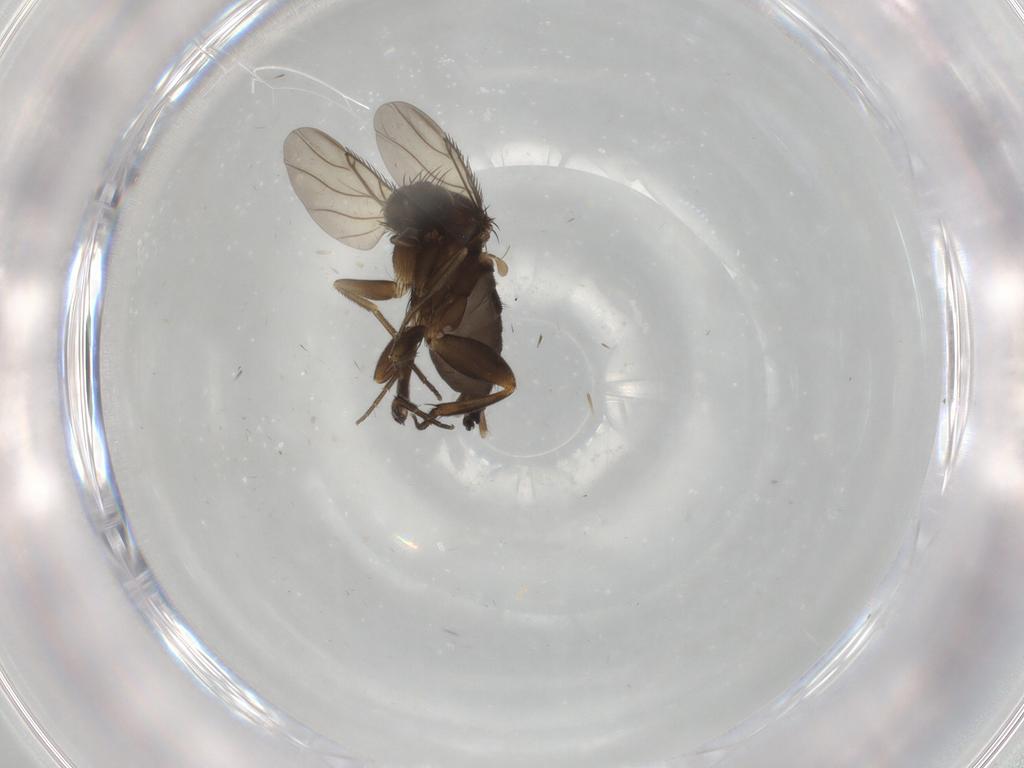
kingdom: Animalia
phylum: Arthropoda
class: Insecta
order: Diptera
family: Phoridae
